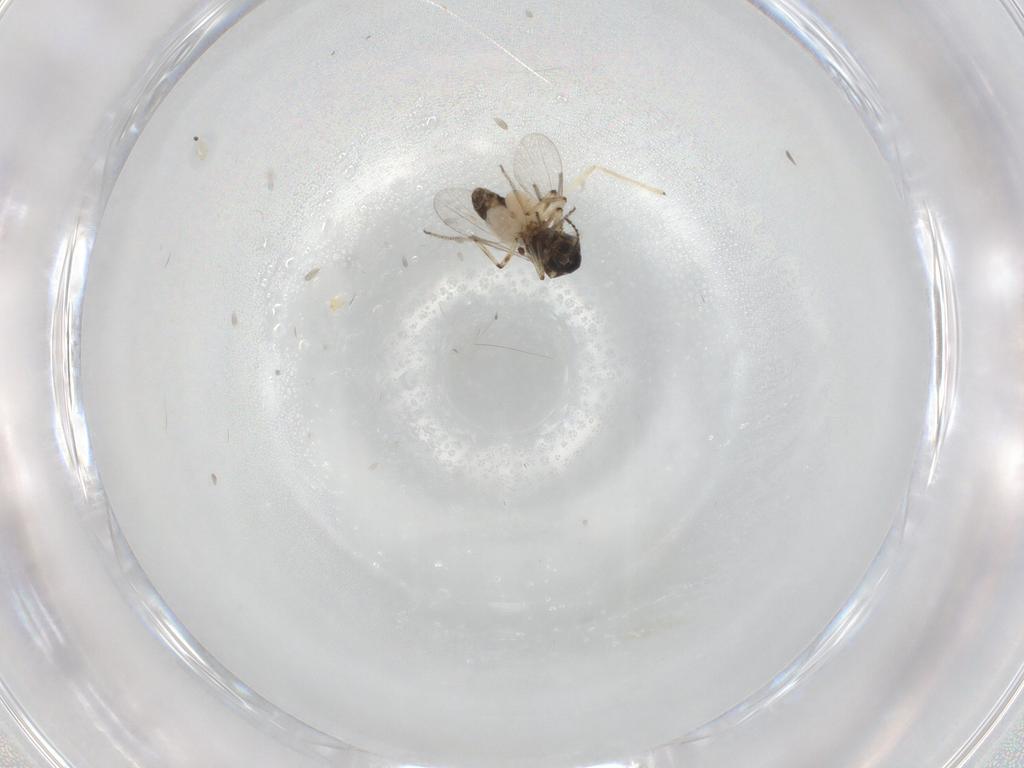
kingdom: Animalia
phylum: Arthropoda
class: Insecta
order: Diptera
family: Ceratopogonidae
